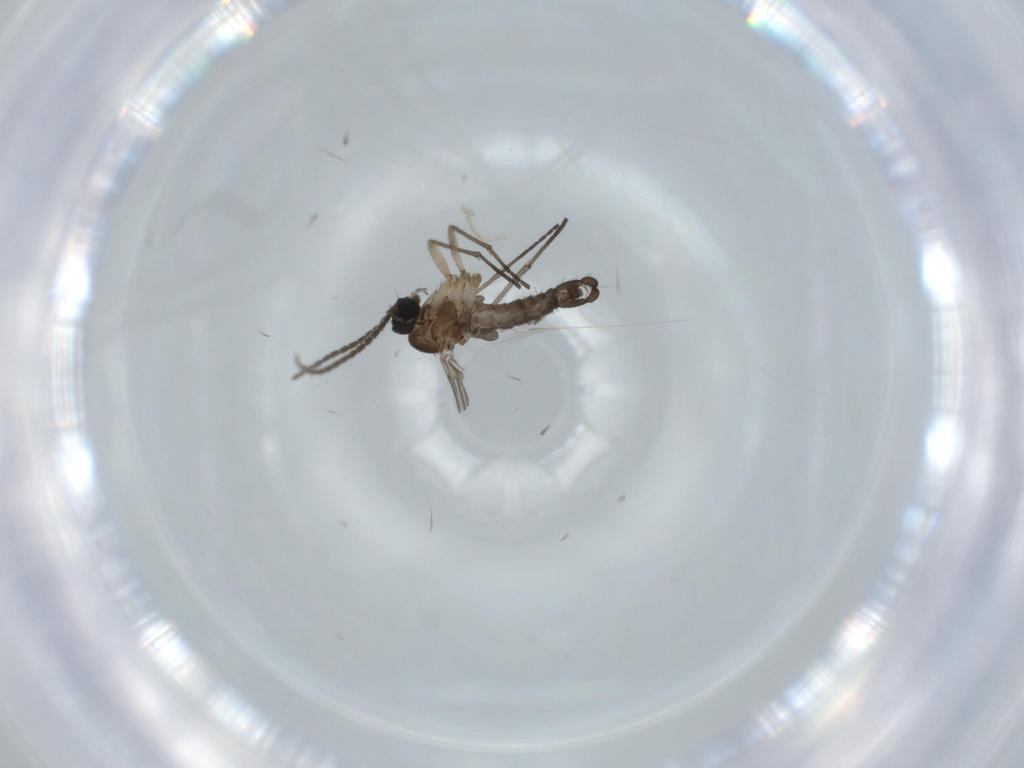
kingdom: Animalia
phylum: Arthropoda
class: Insecta
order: Diptera
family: Sciaridae
